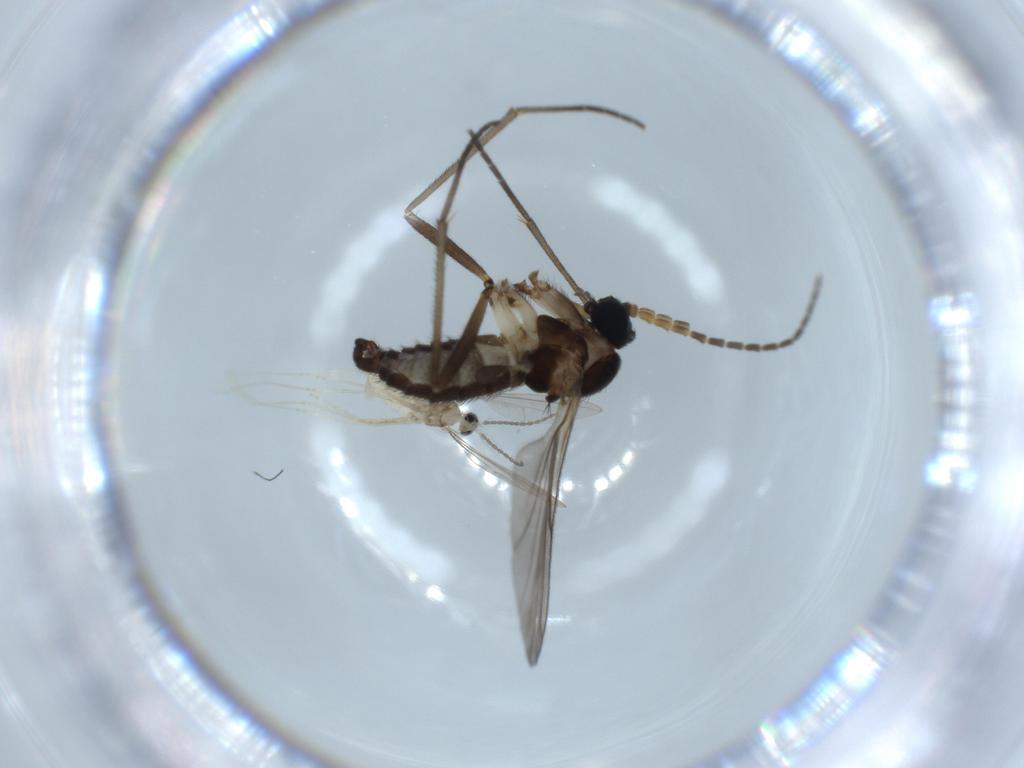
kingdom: Animalia
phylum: Arthropoda
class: Insecta
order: Diptera
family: Sciaridae
